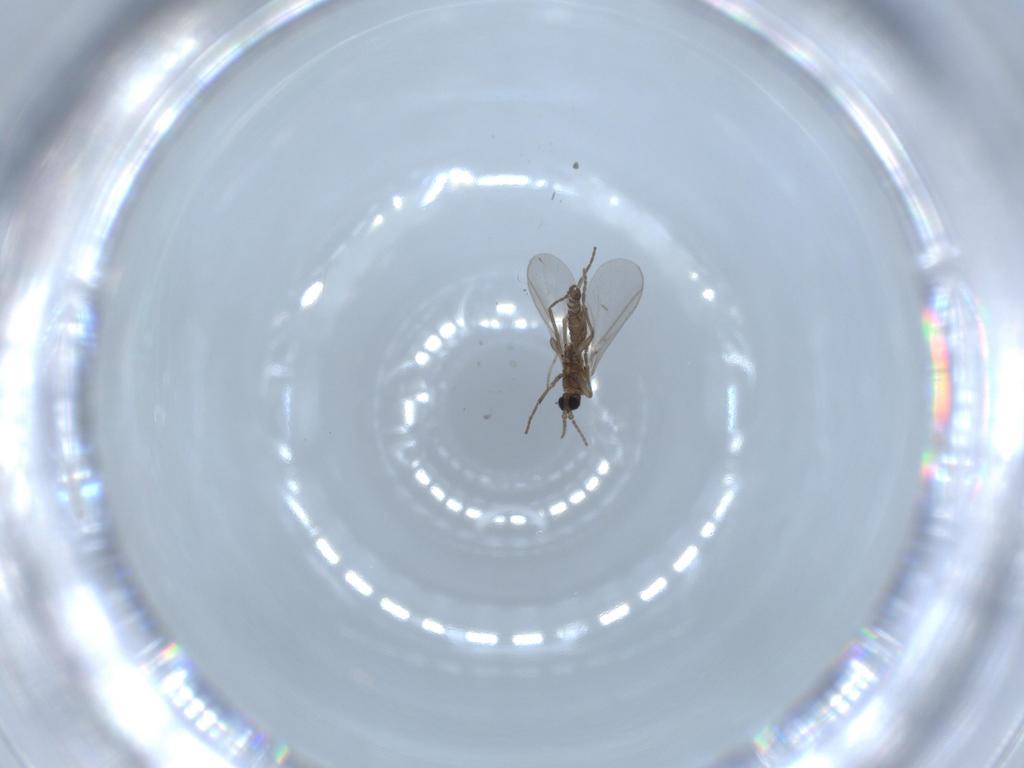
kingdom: Animalia
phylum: Arthropoda
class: Insecta
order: Diptera
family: Sciaridae
